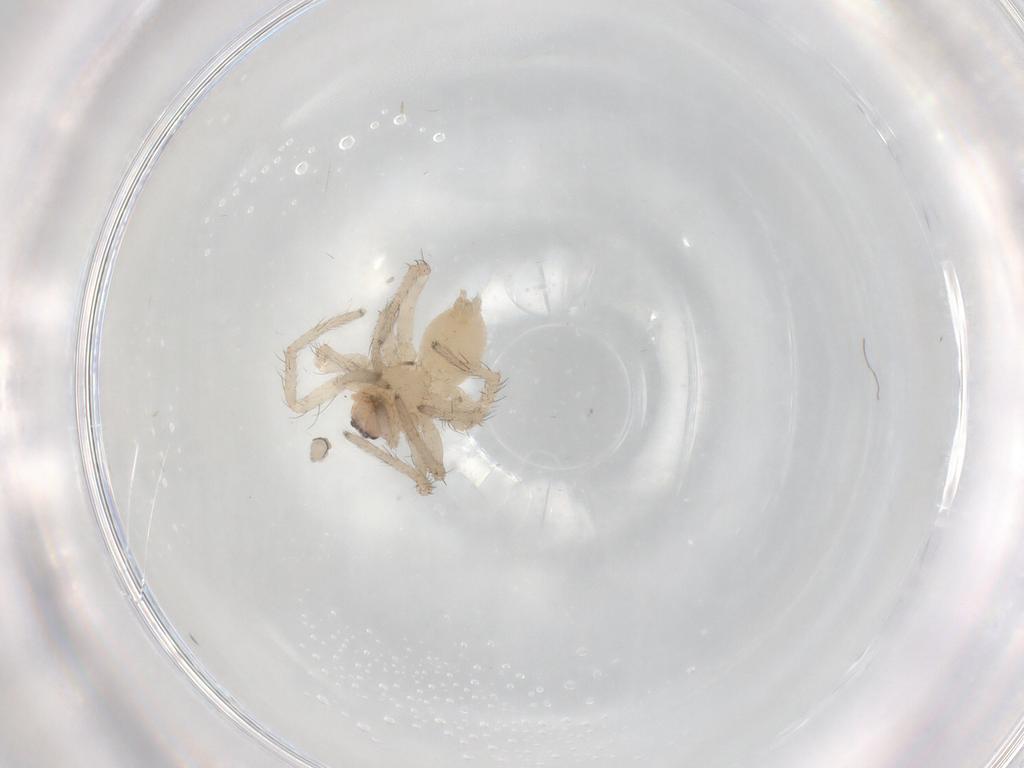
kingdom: Animalia
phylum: Arthropoda
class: Arachnida
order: Araneae
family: Anyphaenidae
